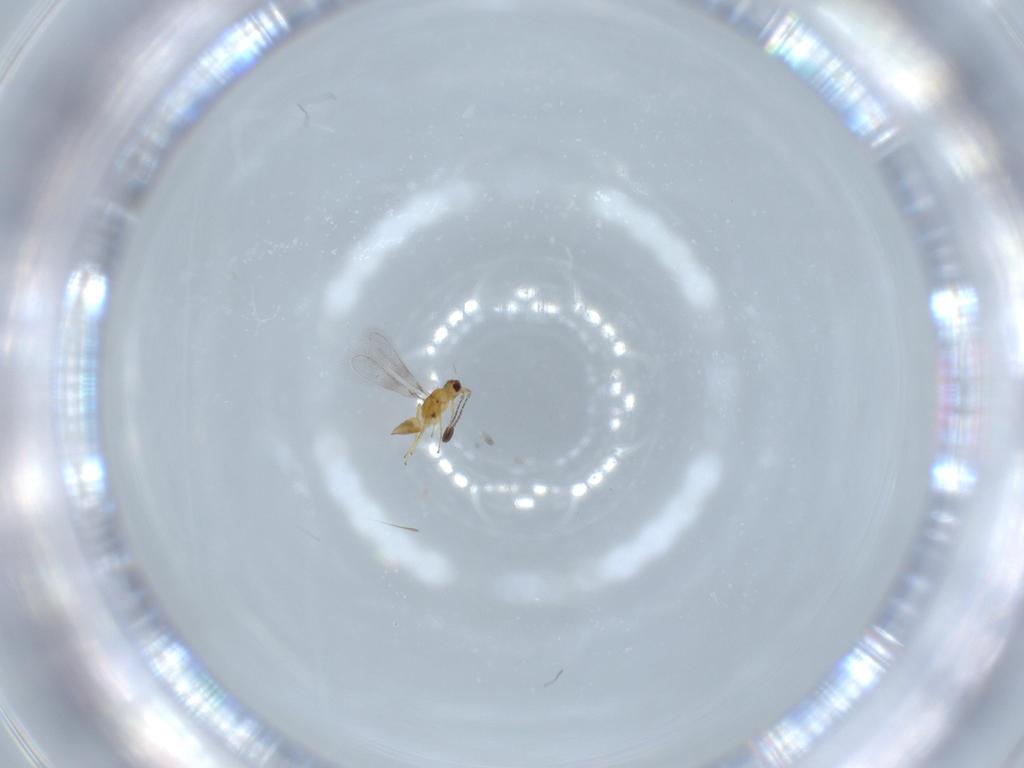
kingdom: Animalia
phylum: Arthropoda
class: Insecta
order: Hymenoptera
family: Scelionidae
